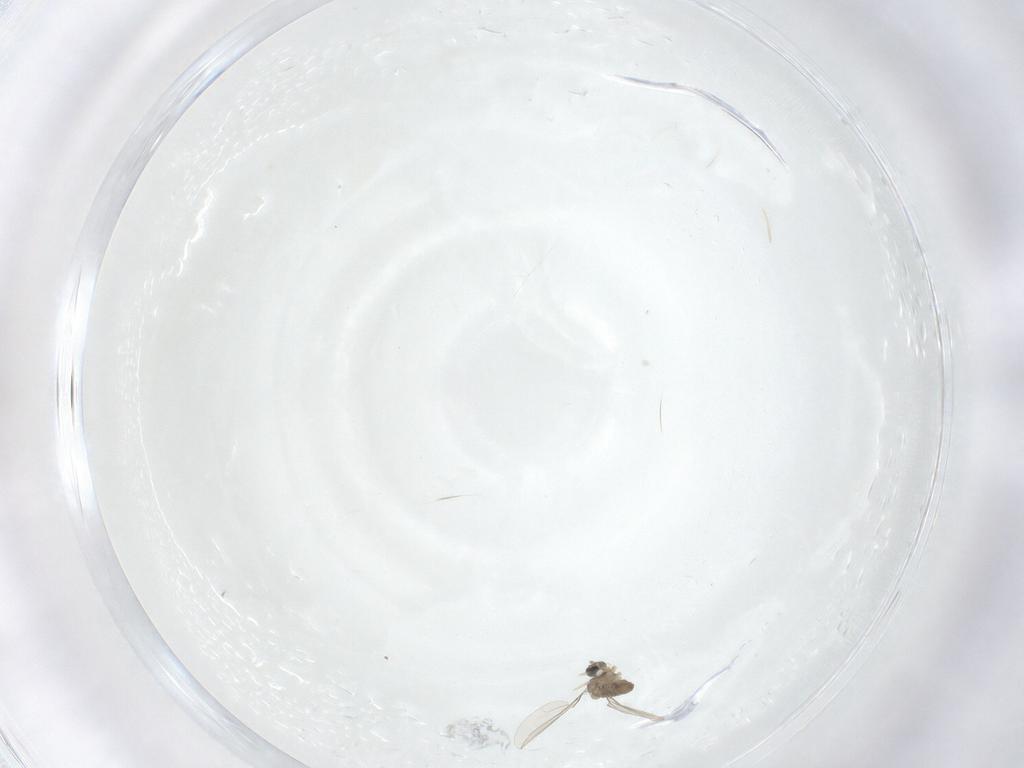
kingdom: Animalia
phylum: Arthropoda
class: Insecta
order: Diptera
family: Cecidomyiidae
